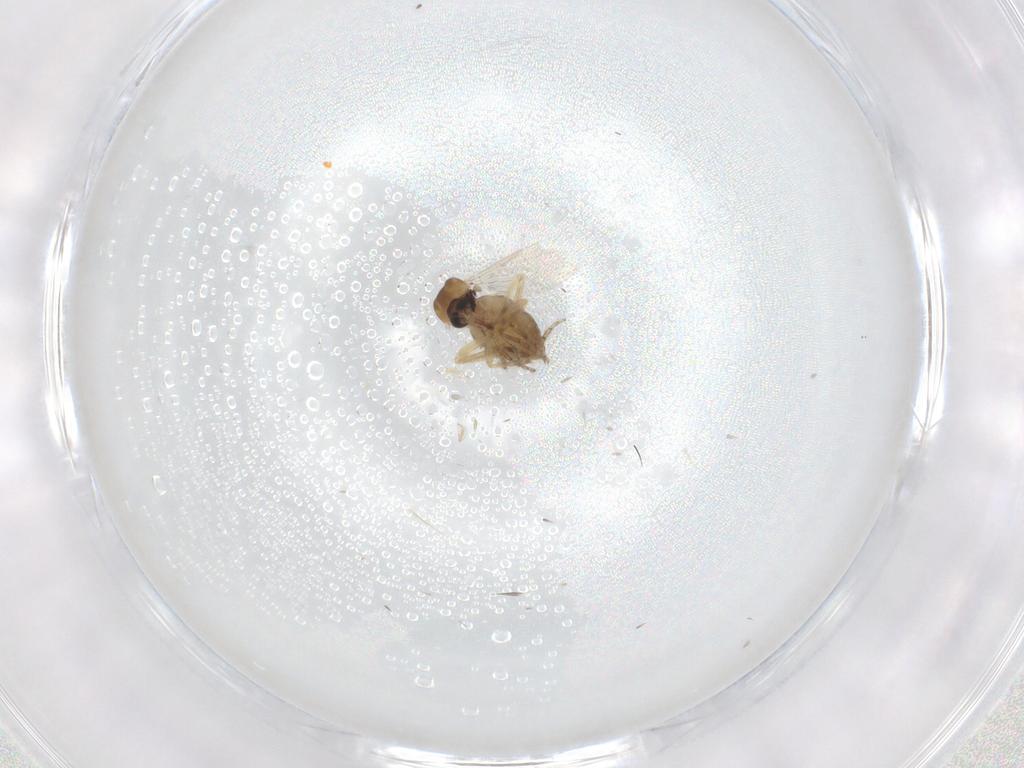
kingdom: Animalia
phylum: Arthropoda
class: Insecta
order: Diptera
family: Ceratopogonidae
